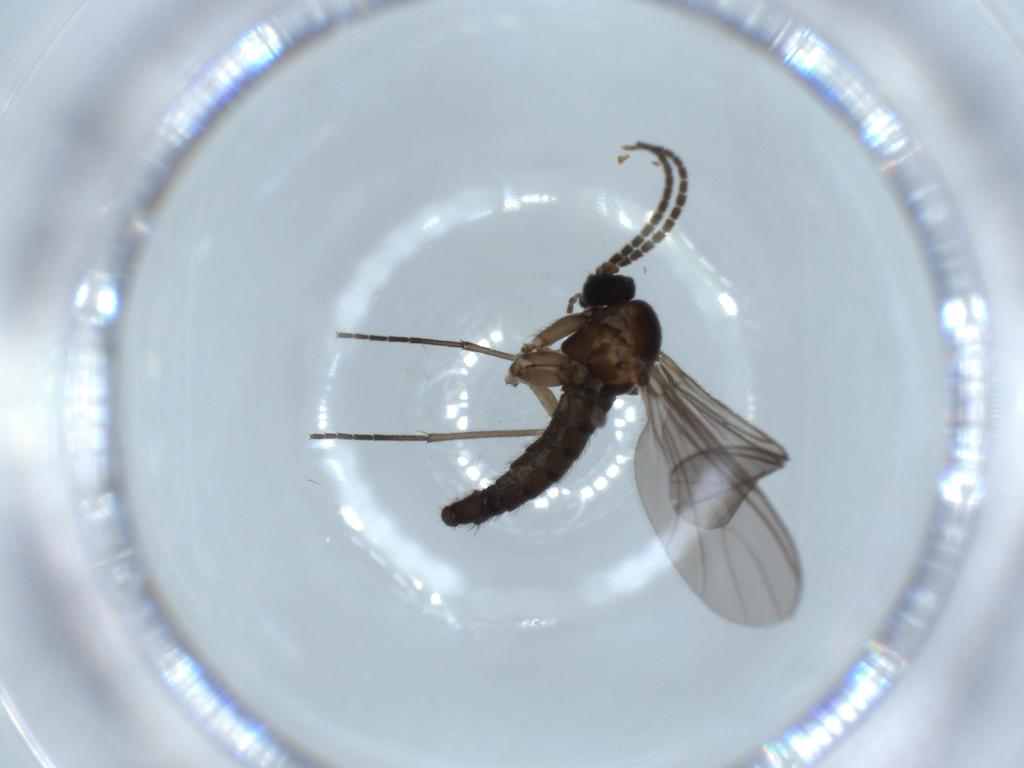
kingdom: Animalia
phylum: Arthropoda
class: Insecta
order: Diptera
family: Sciaridae
